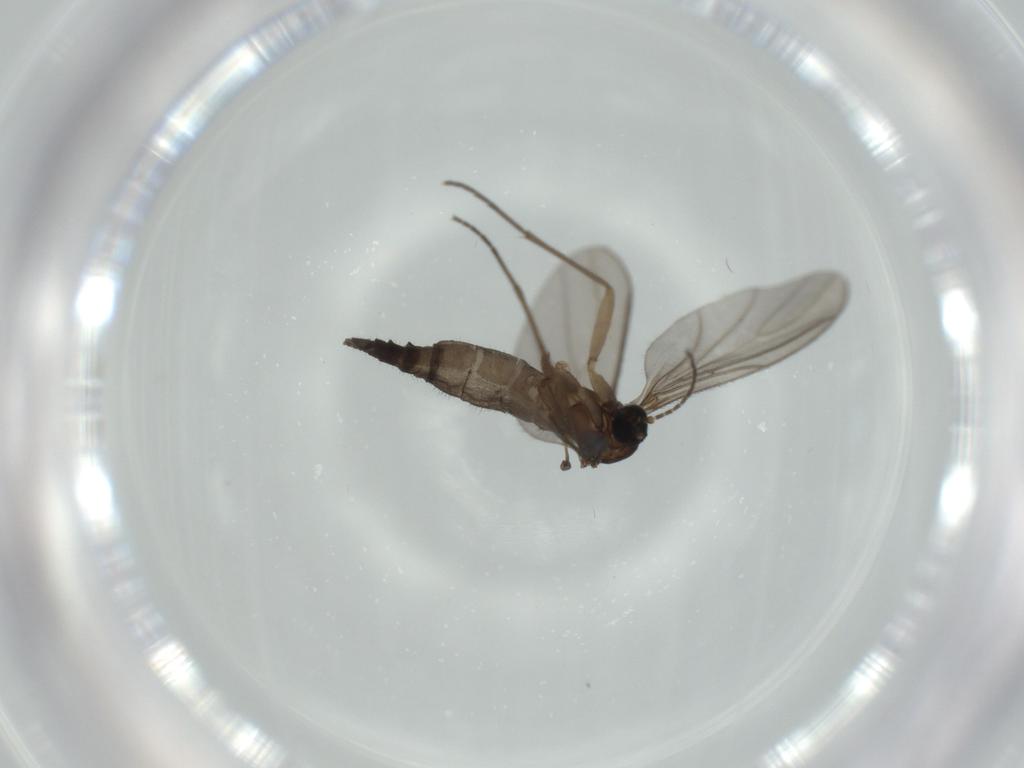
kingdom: Animalia
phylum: Arthropoda
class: Insecta
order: Diptera
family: Sciaridae
